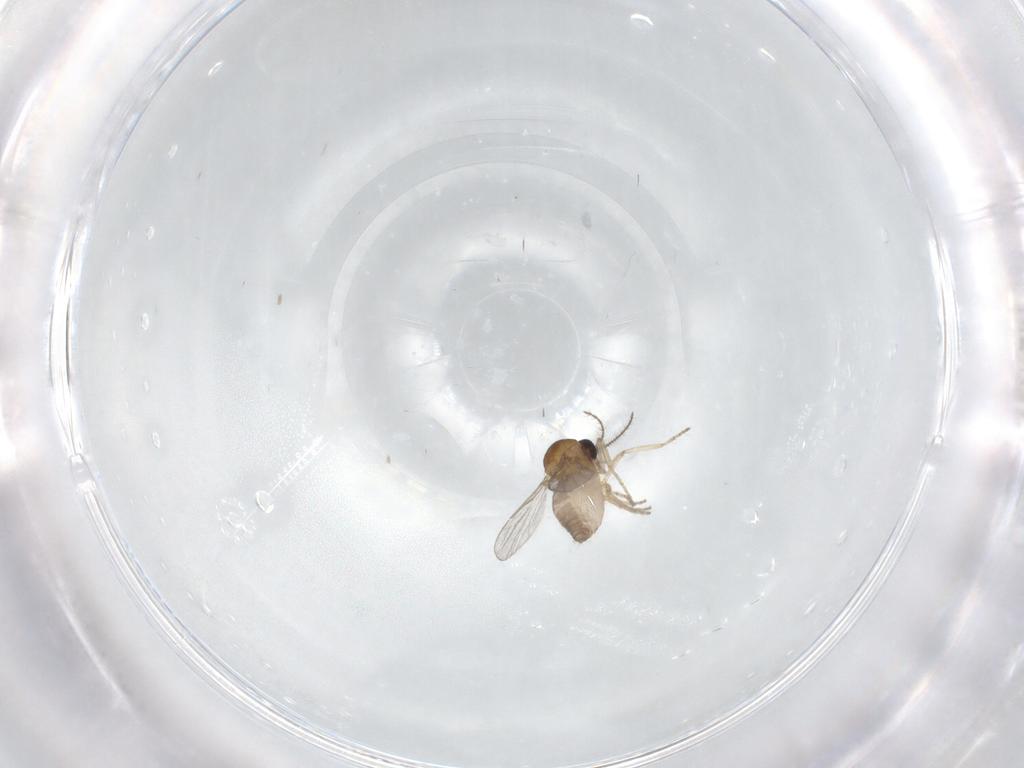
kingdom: Animalia
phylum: Arthropoda
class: Insecta
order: Diptera
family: Ceratopogonidae
